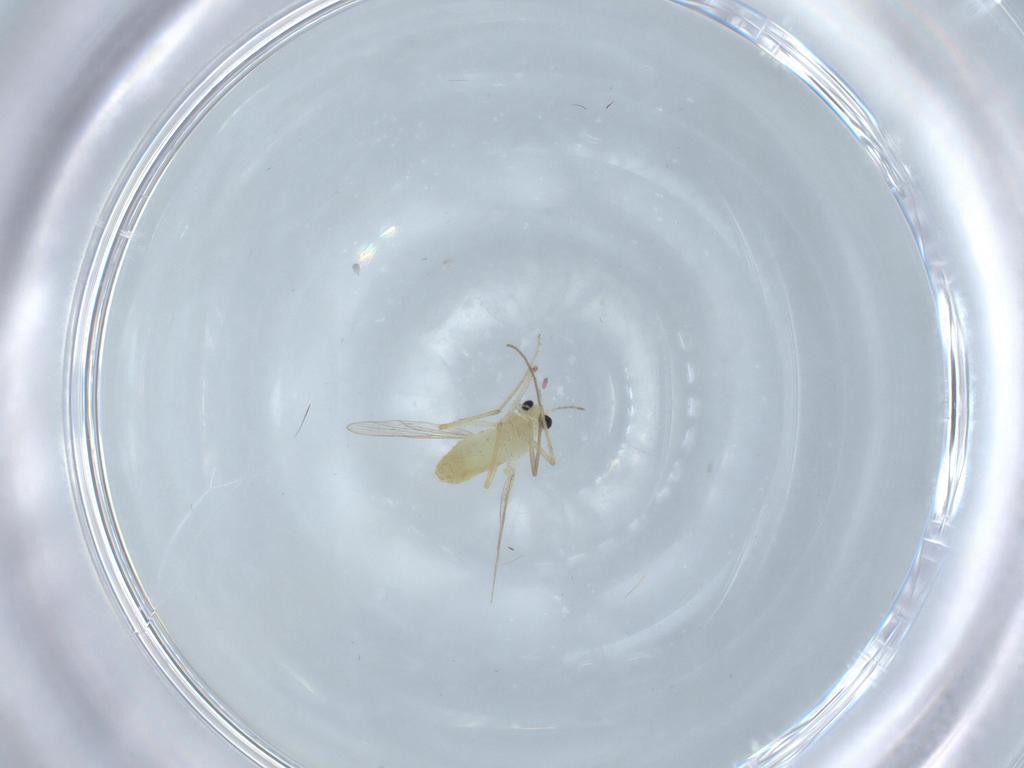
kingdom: Animalia
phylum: Arthropoda
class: Insecta
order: Diptera
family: Chironomidae
